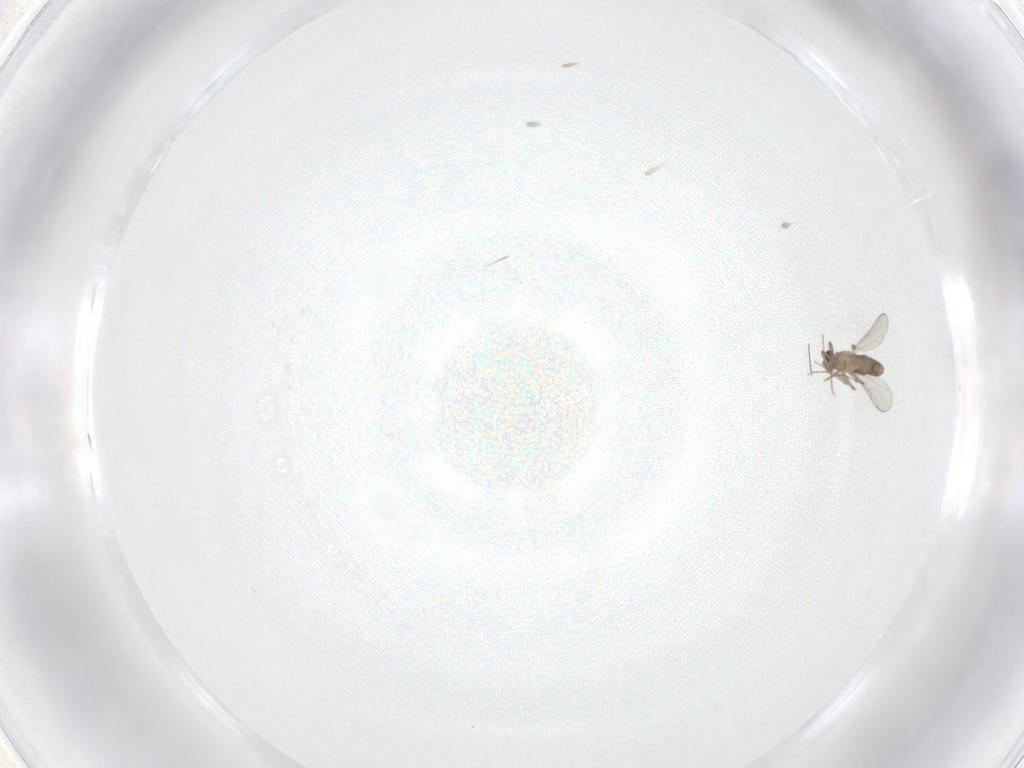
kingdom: Animalia
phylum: Arthropoda
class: Insecta
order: Diptera
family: Chironomidae
